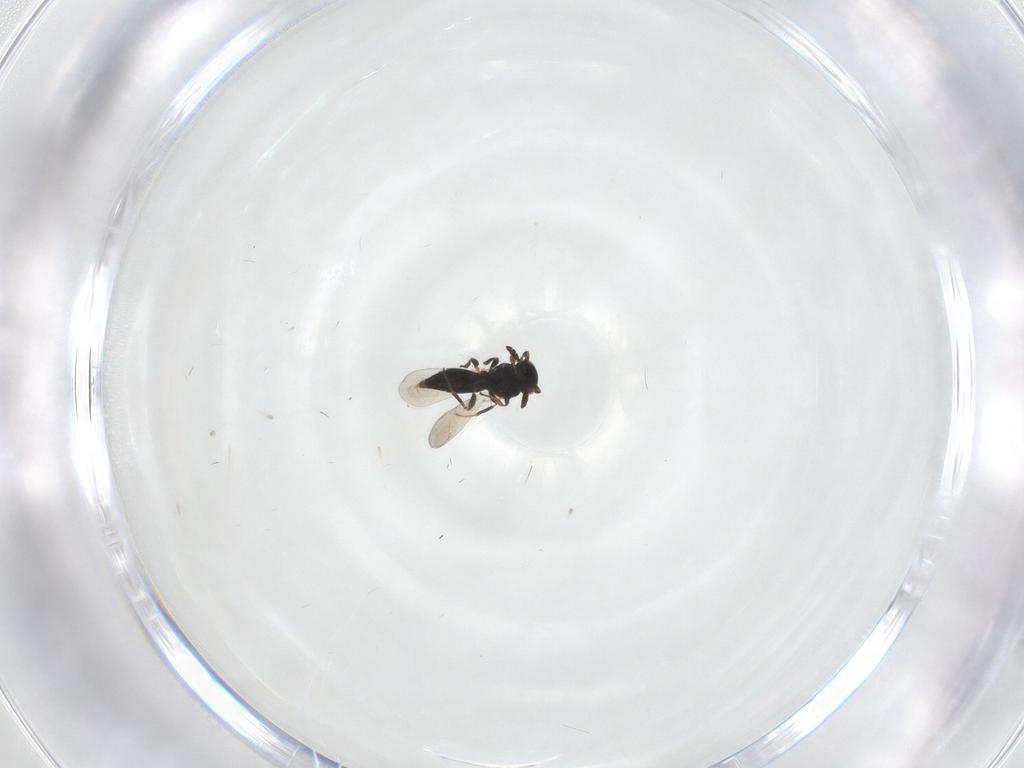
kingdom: Animalia
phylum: Arthropoda
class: Insecta
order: Hymenoptera
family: Platygastridae
